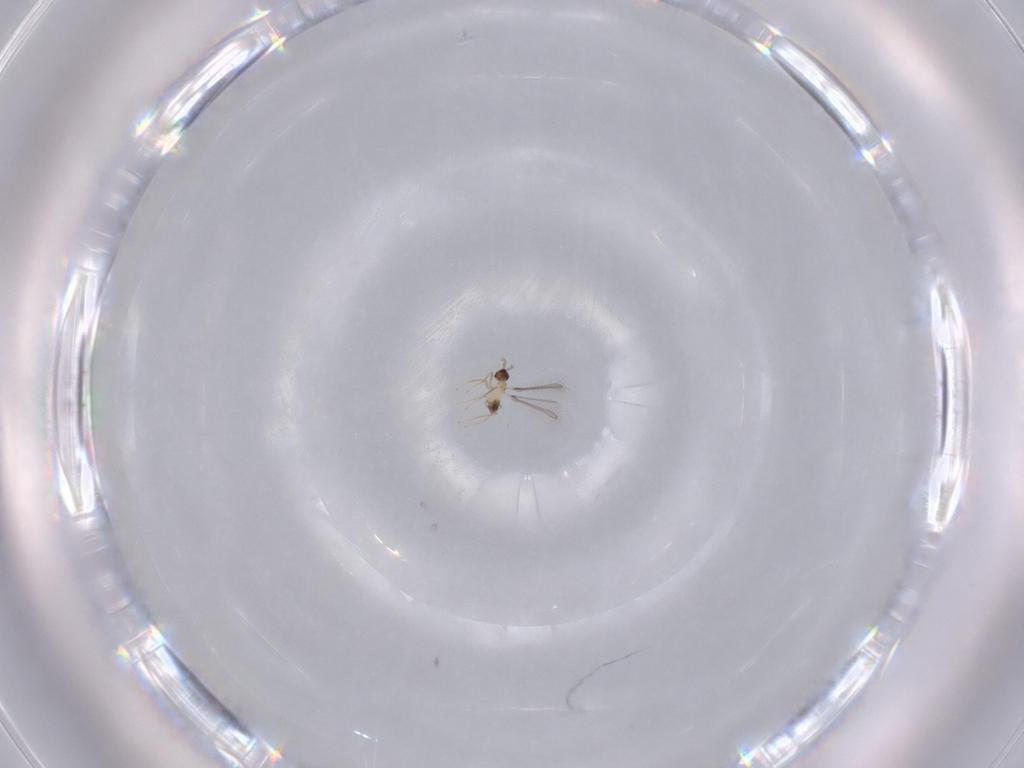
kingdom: Animalia
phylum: Arthropoda
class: Insecta
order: Hymenoptera
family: Mymaridae
